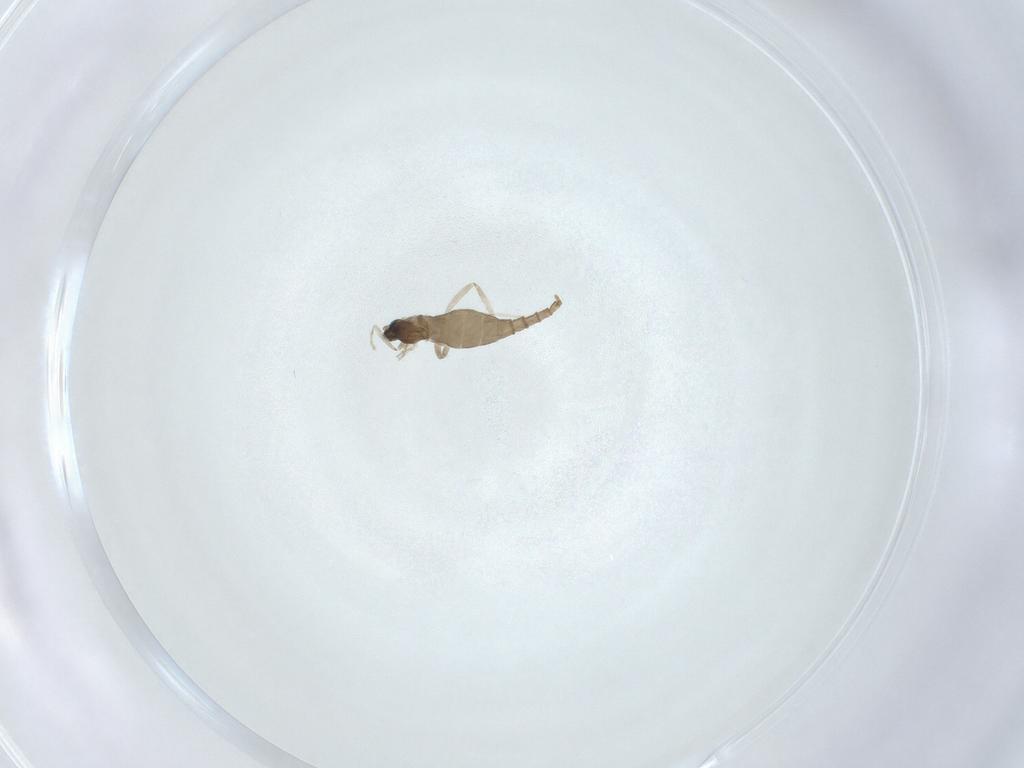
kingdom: Animalia
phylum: Arthropoda
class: Insecta
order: Diptera
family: Cecidomyiidae
